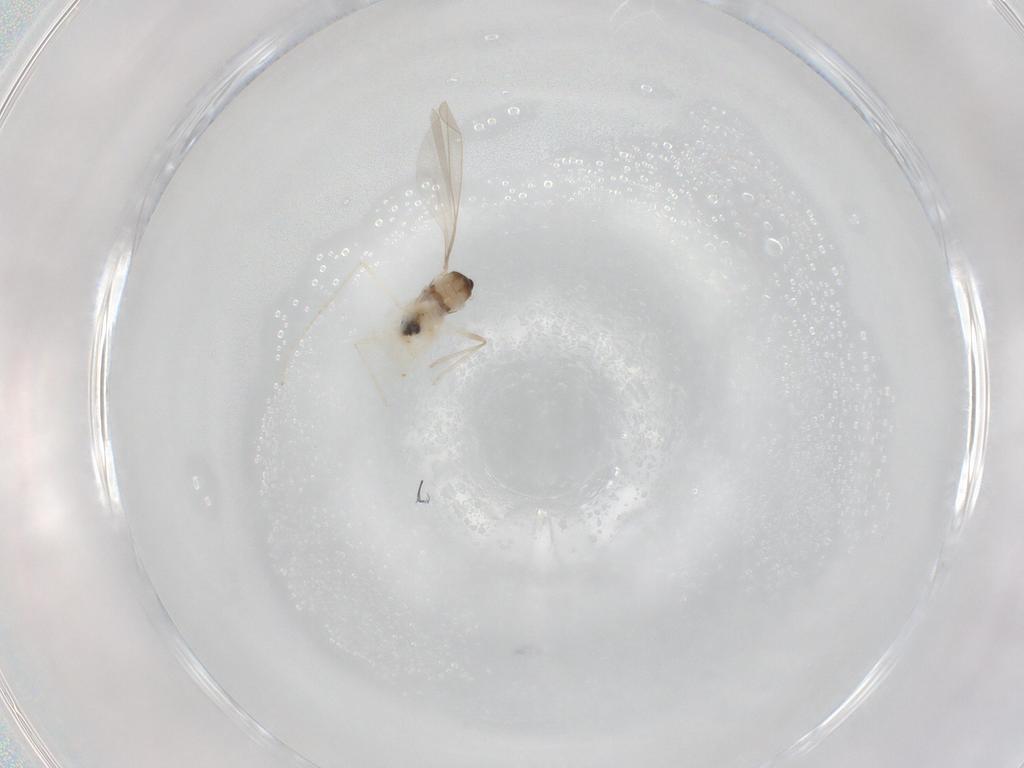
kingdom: Animalia
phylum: Arthropoda
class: Insecta
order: Diptera
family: Cecidomyiidae
